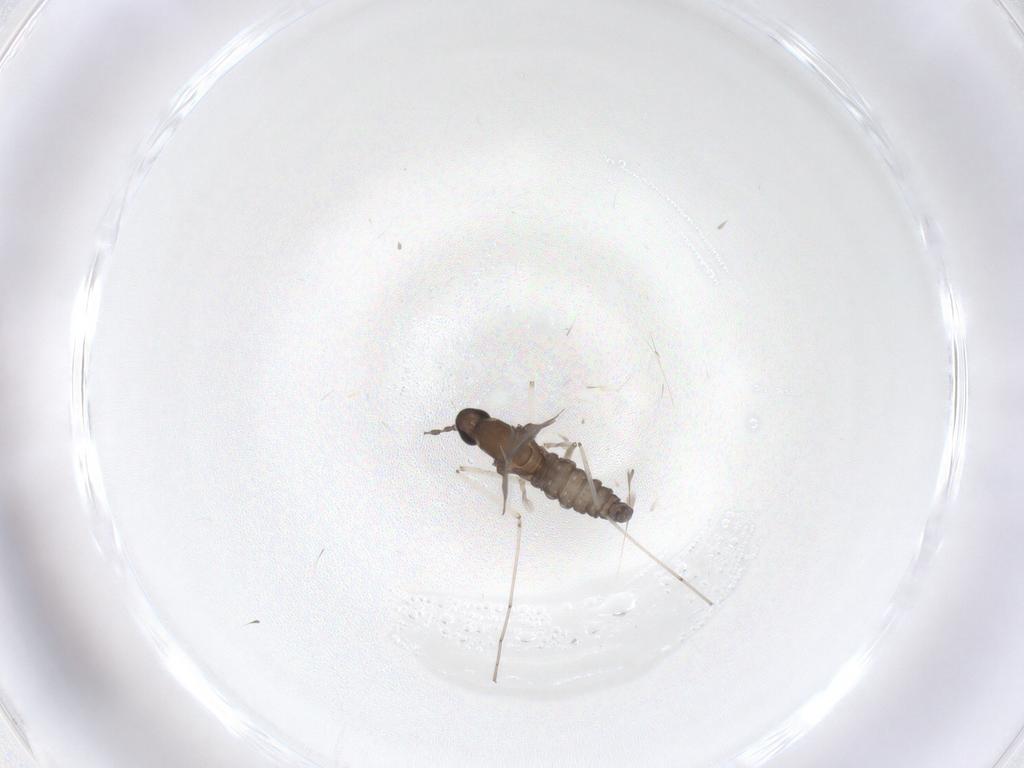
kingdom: Animalia
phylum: Arthropoda
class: Insecta
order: Diptera
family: Cecidomyiidae
